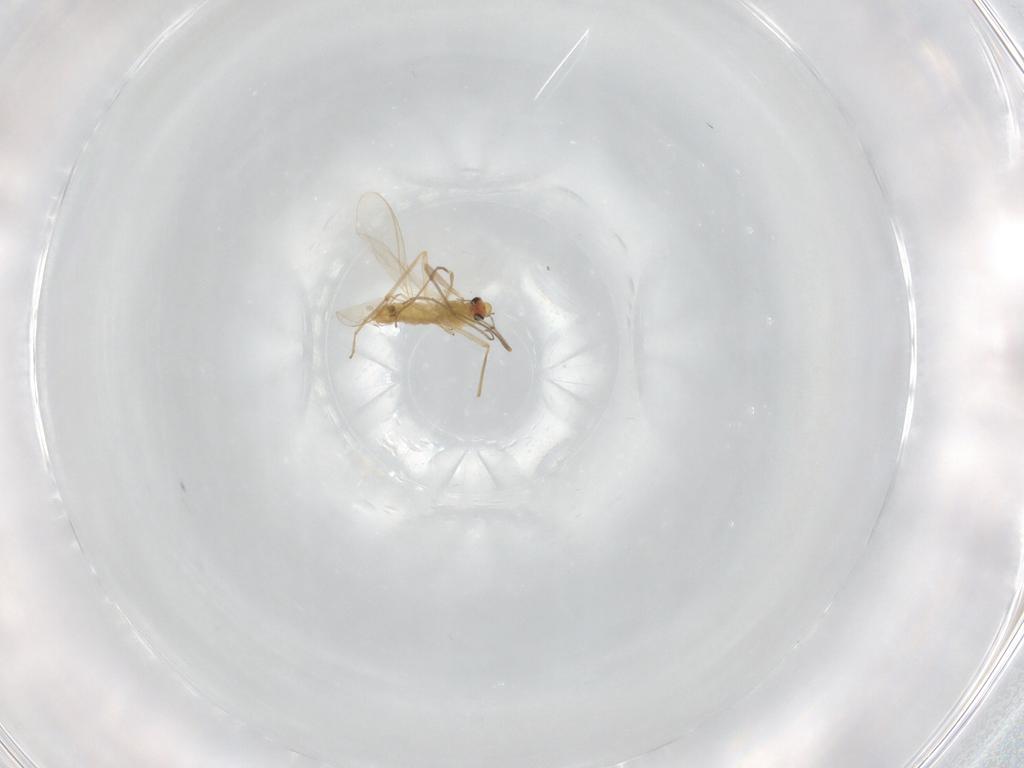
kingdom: Animalia
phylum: Arthropoda
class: Insecta
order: Diptera
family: Chironomidae
